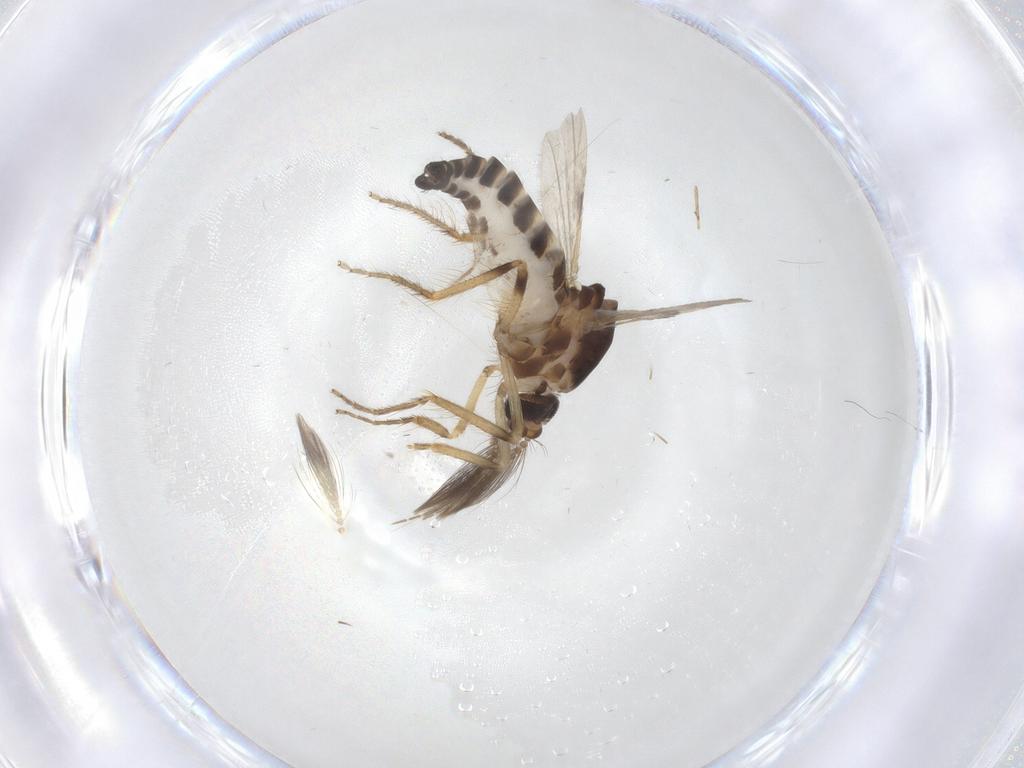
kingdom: Animalia
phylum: Arthropoda
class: Insecta
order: Diptera
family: Ceratopogonidae
